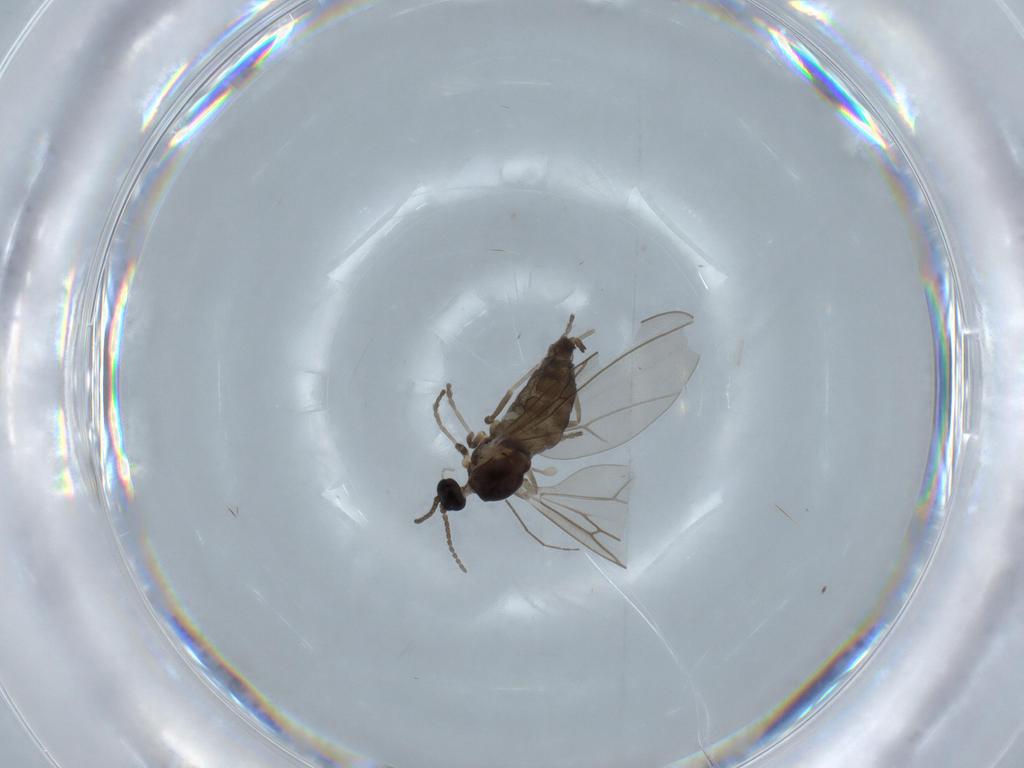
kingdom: Animalia
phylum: Arthropoda
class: Insecta
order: Diptera
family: Cecidomyiidae
